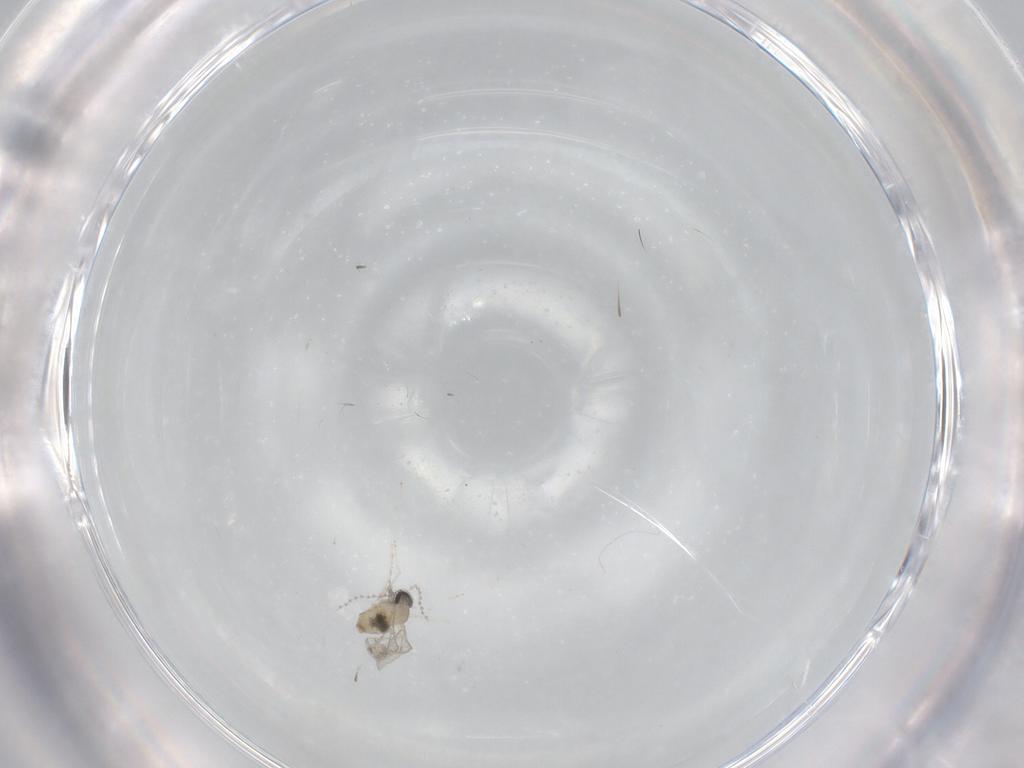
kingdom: Animalia
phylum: Arthropoda
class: Insecta
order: Diptera
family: Cecidomyiidae
